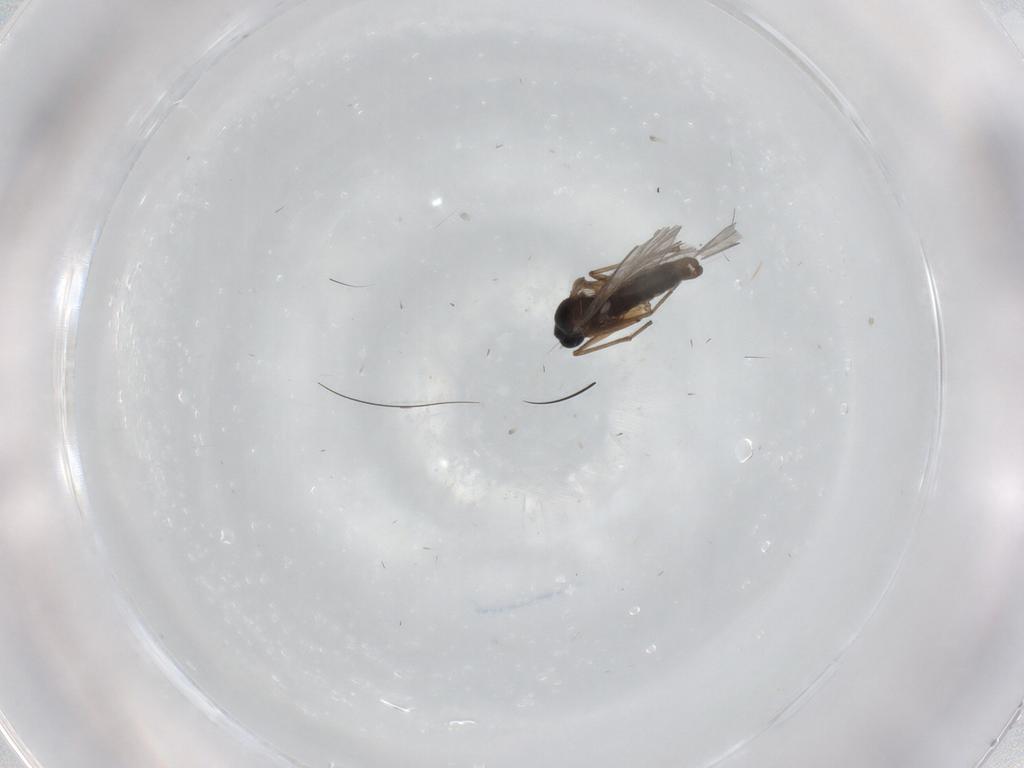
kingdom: Animalia
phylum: Arthropoda
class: Insecta
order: Diptera
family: Sciaridae
